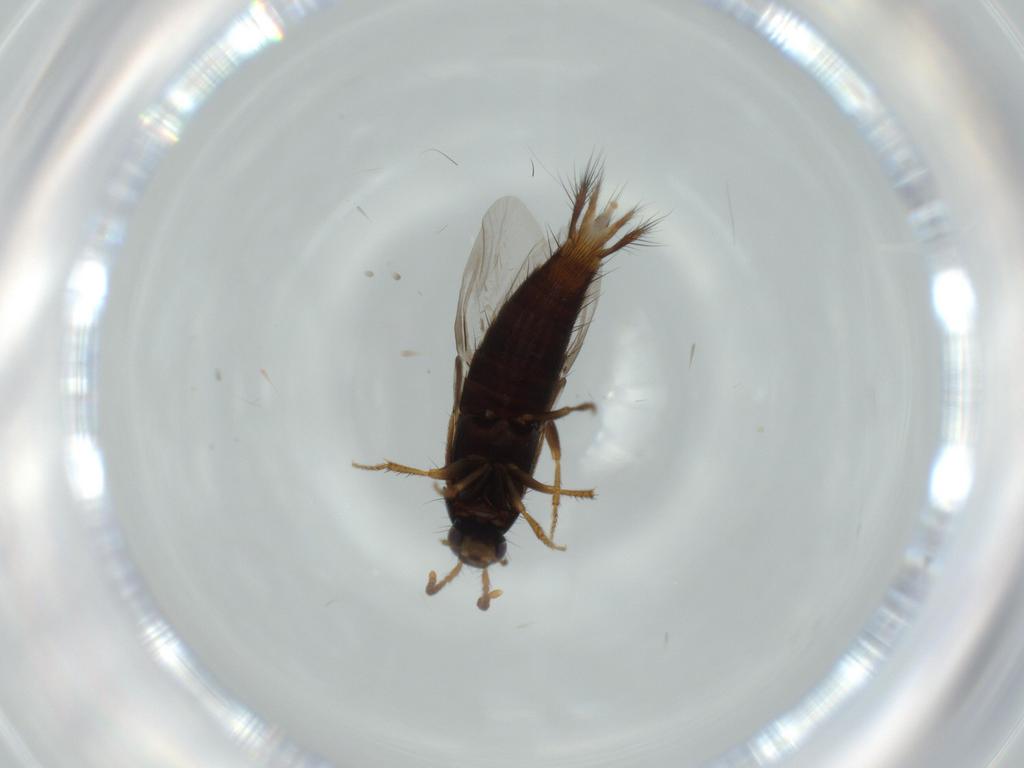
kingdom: Animalia
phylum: Arthropoda
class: Insecta
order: Coleoptera
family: Staphylinidae
